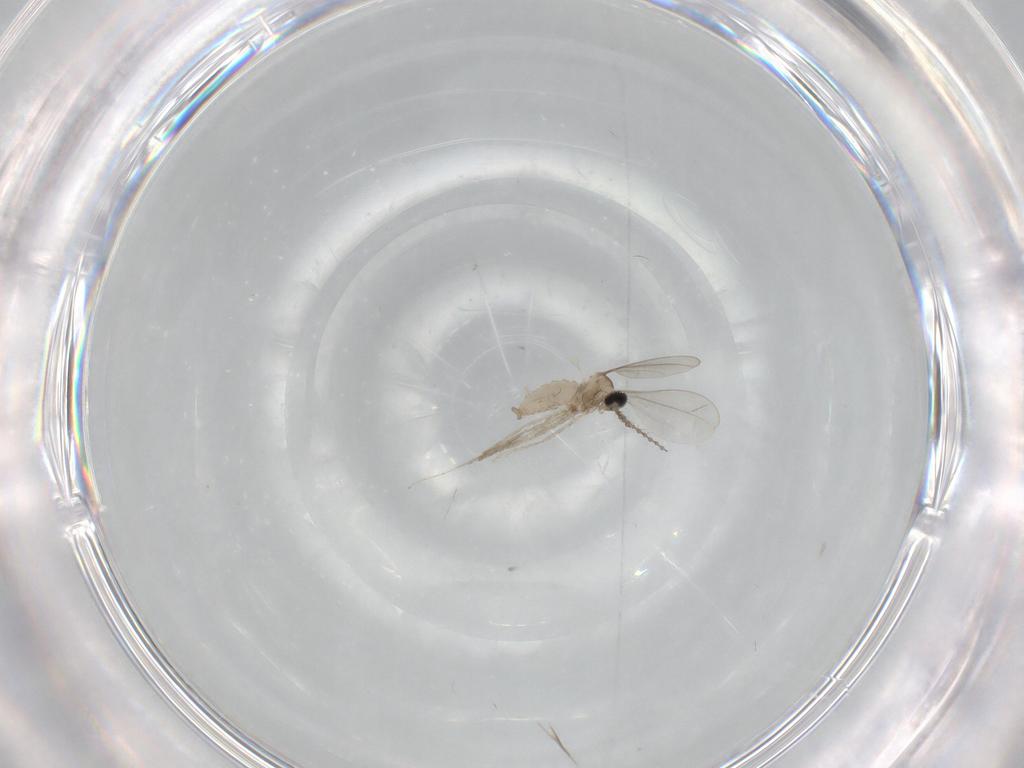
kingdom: Animalia
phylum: Arthropoda
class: Insecta
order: Diptera
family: Cecidomyiidae
